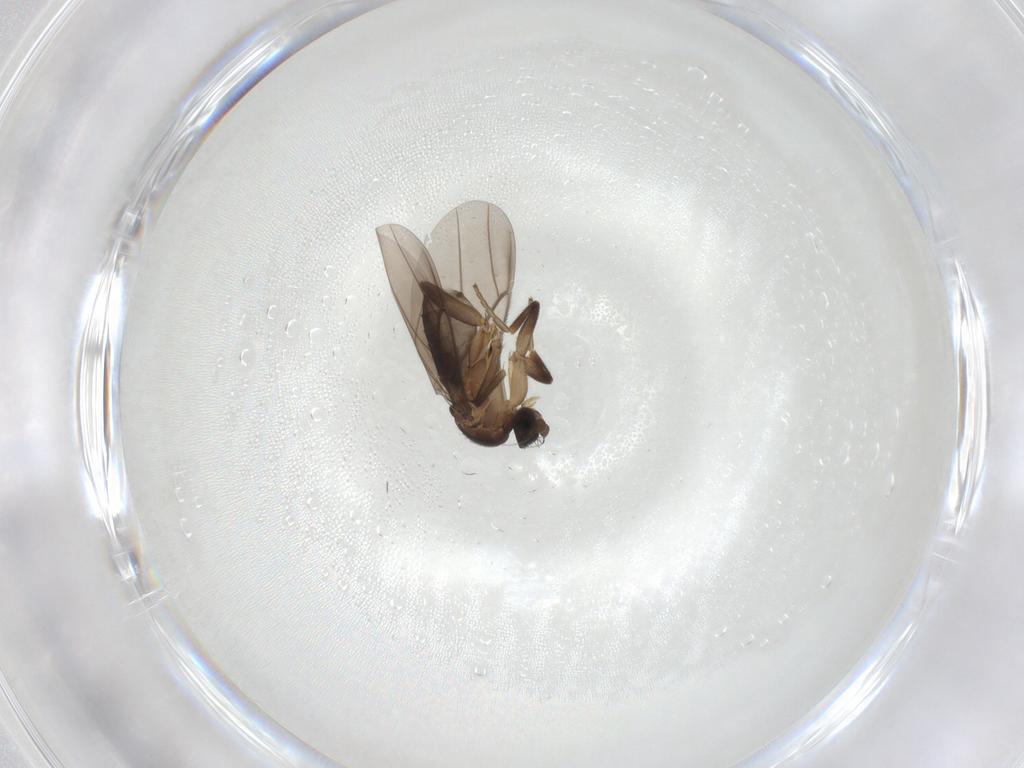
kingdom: Animalia
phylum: Arthropoda
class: Insecta
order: Diptera
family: Phoridae
